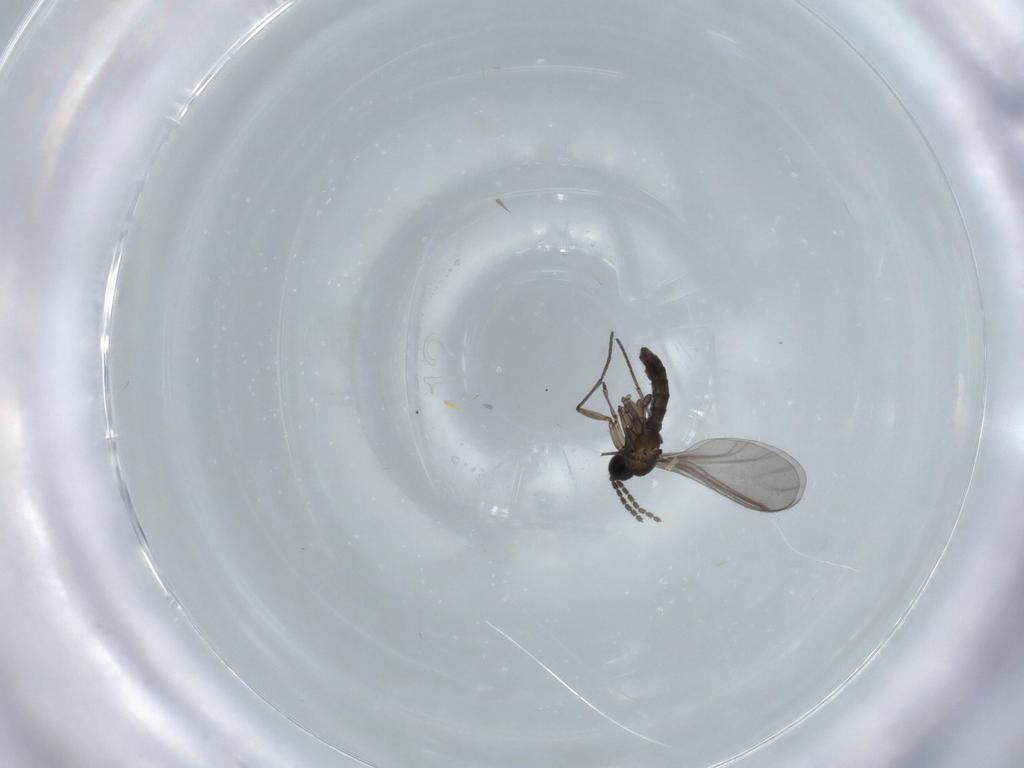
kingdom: Animalia
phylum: Arthropoda
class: Insecta
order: Diptera
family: Sciaridae
